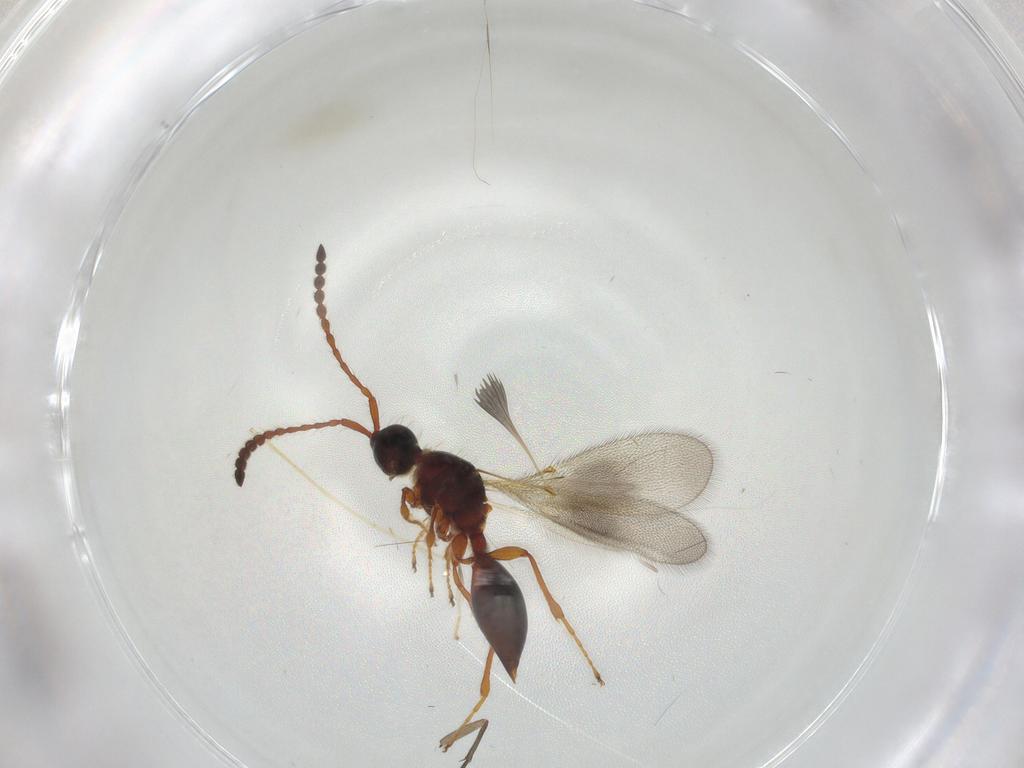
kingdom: Animalia
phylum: Arthropoda
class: Insecta
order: Hymenoptera
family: Diapriidae
